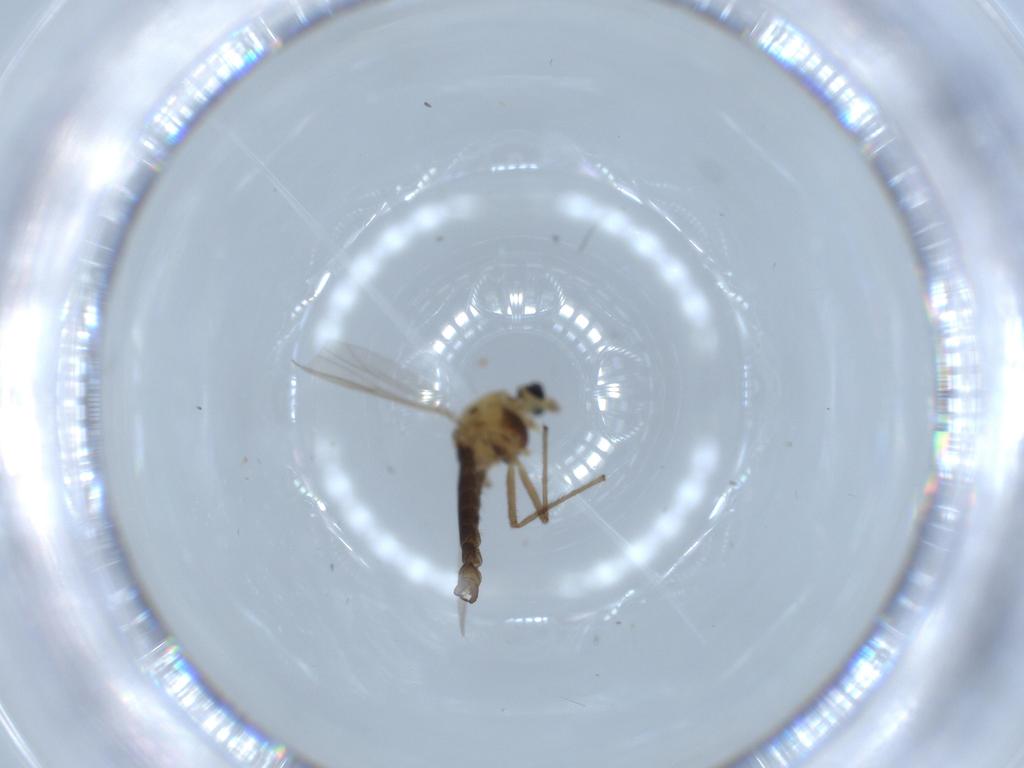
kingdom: Animalia
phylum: Arthropoda
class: Insecta
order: Diptera
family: Chironomidae
